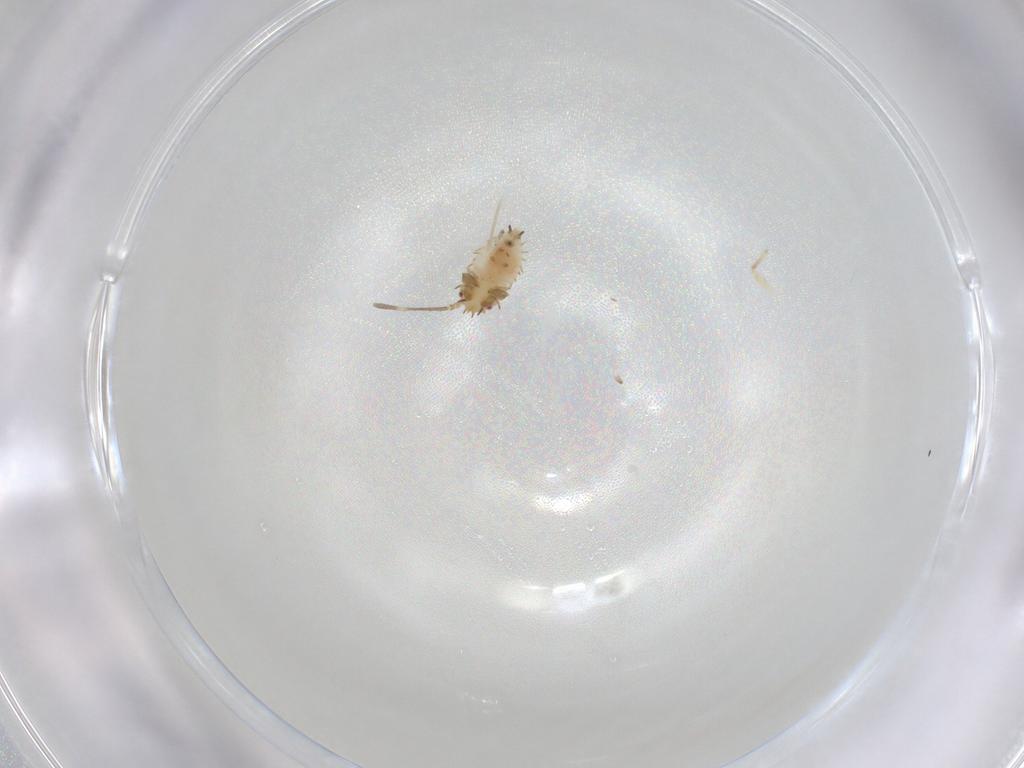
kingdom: Animalia
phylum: Arthropoda
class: Insecta
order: Hemiptera
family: Tingidae
